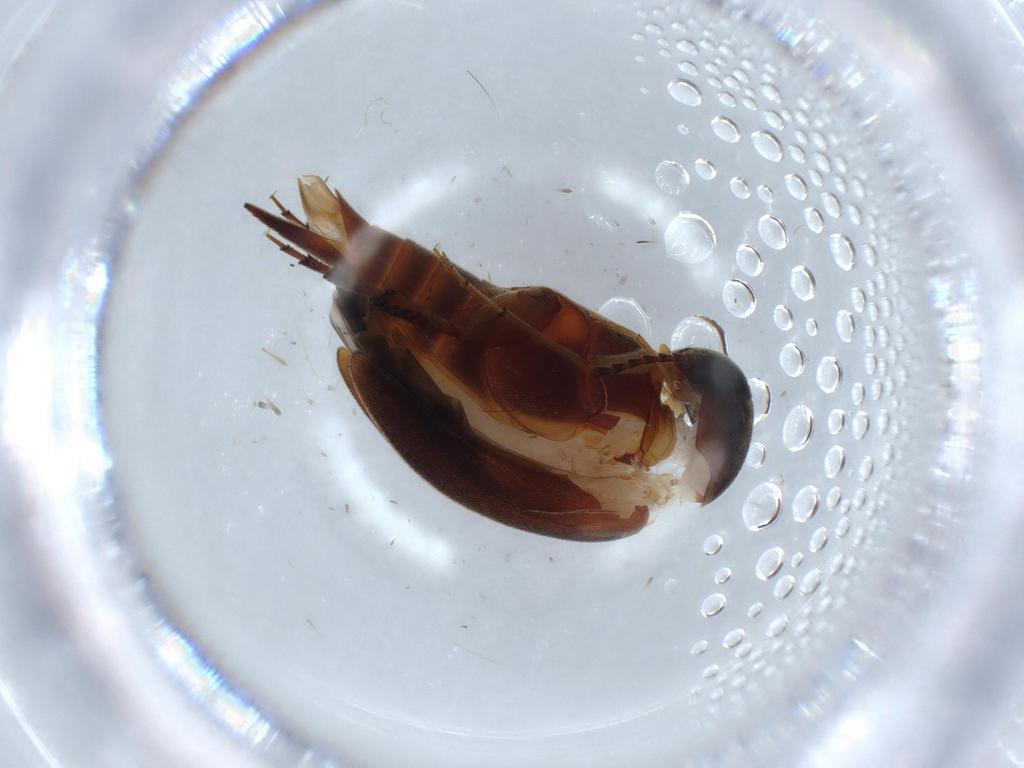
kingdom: Animalia
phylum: Arthropoda
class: Insecta
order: Coleoptera
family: Mordellidae
